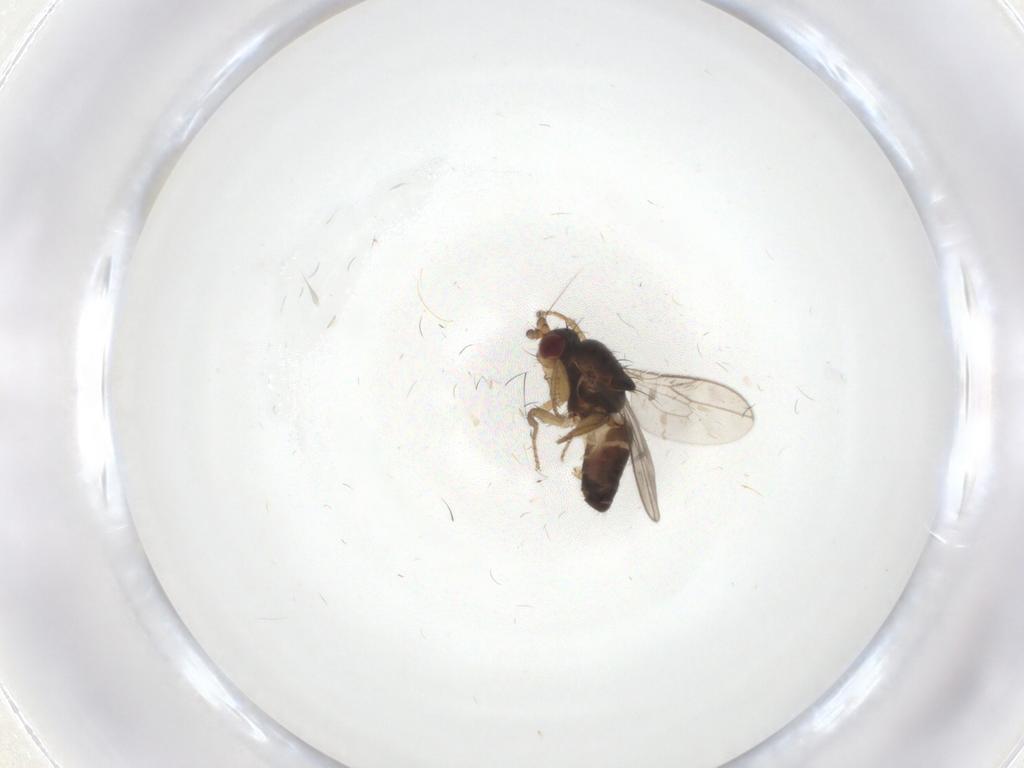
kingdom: Animalia
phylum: Arthropoda
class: Insecta
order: Diptera
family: Sphaeroceridae
